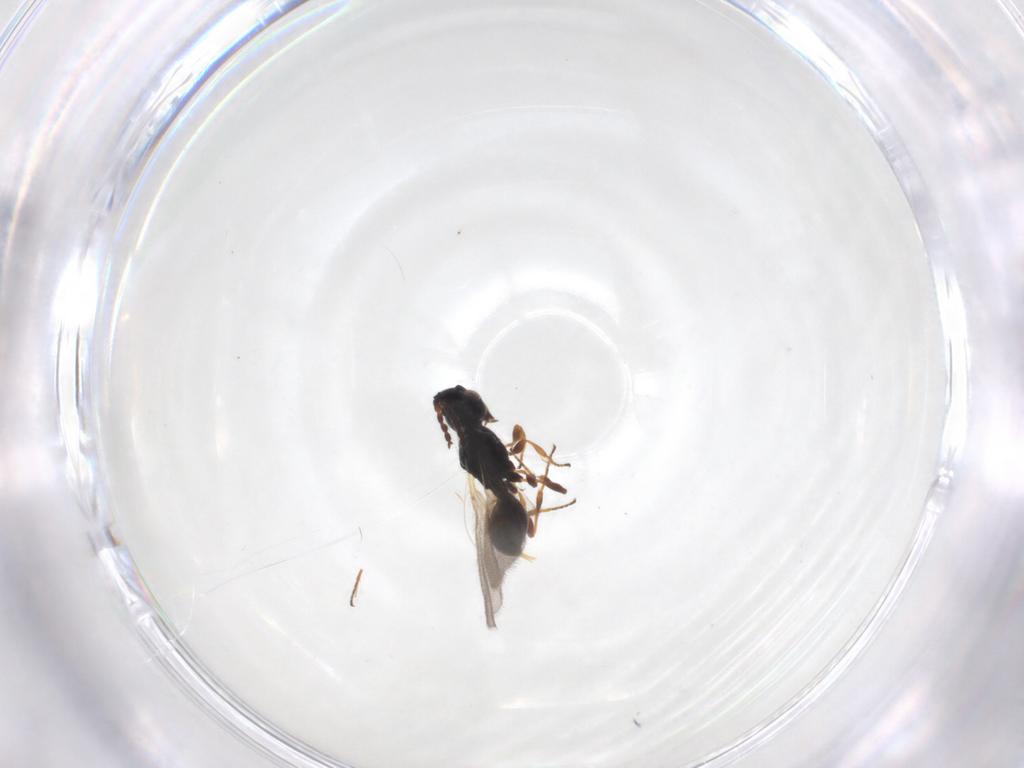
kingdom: Animalia
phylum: Arthropoda
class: Insecta
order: Hymenoptera
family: Diapriidae
